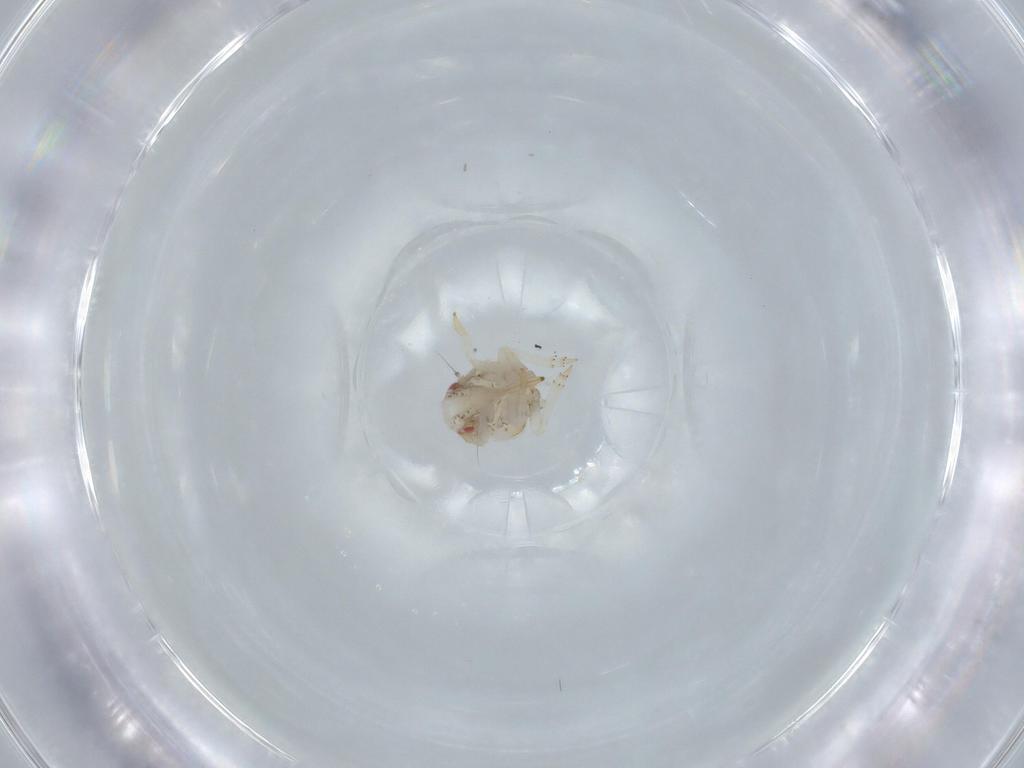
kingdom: Animalia
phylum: Arthropoda
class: Insecta
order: Hemiptera
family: Acanaloniidae
